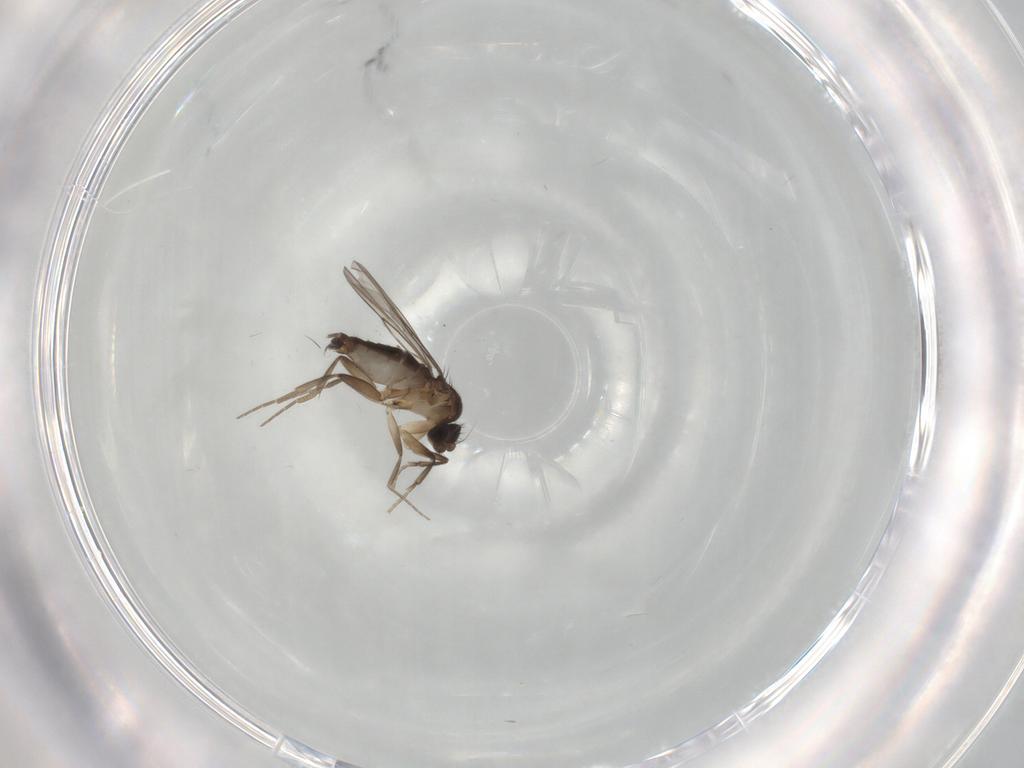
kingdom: Animalia
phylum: Arthropoda
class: Insecta
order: Diptera
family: Phoridae
